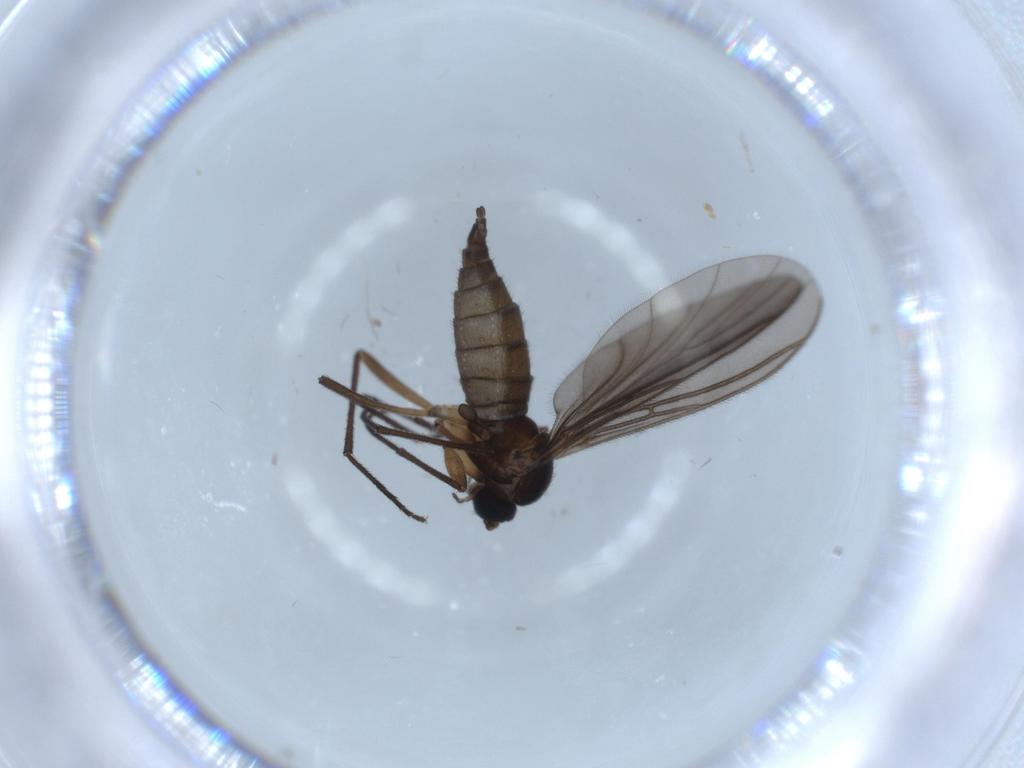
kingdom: Animalia
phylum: Arthropoda
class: Insecta
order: Diptera
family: Sciaridae
